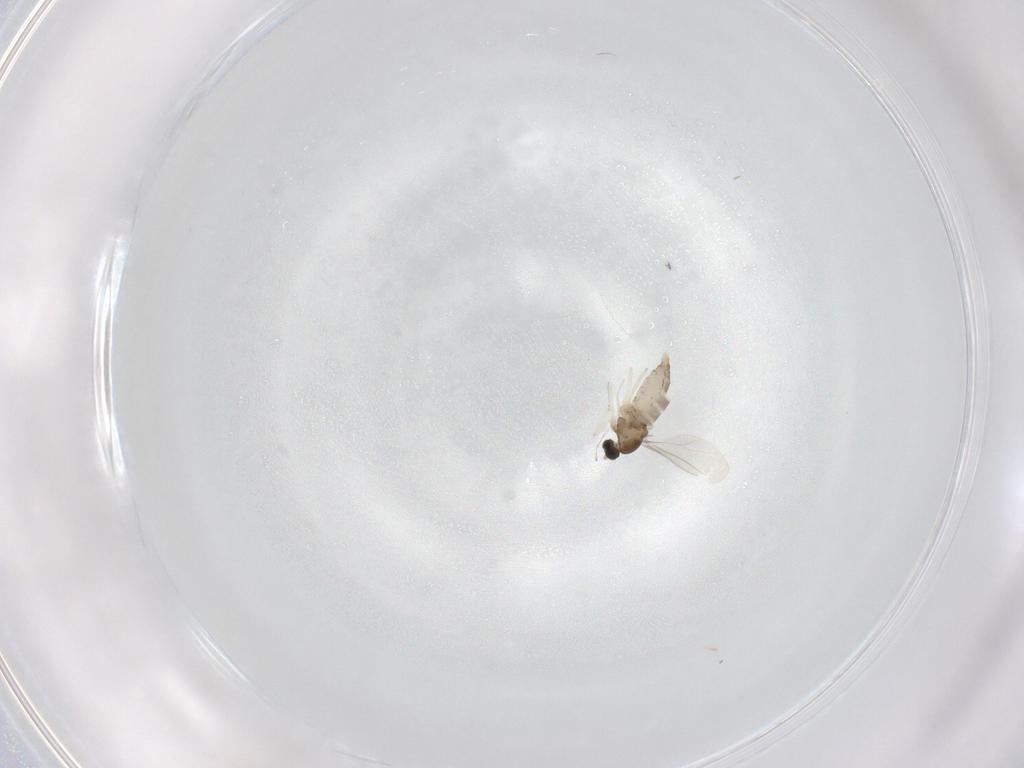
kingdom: Animalia
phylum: Arthropoda
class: Insecta
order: Diptera
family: Cecidomyiidae
